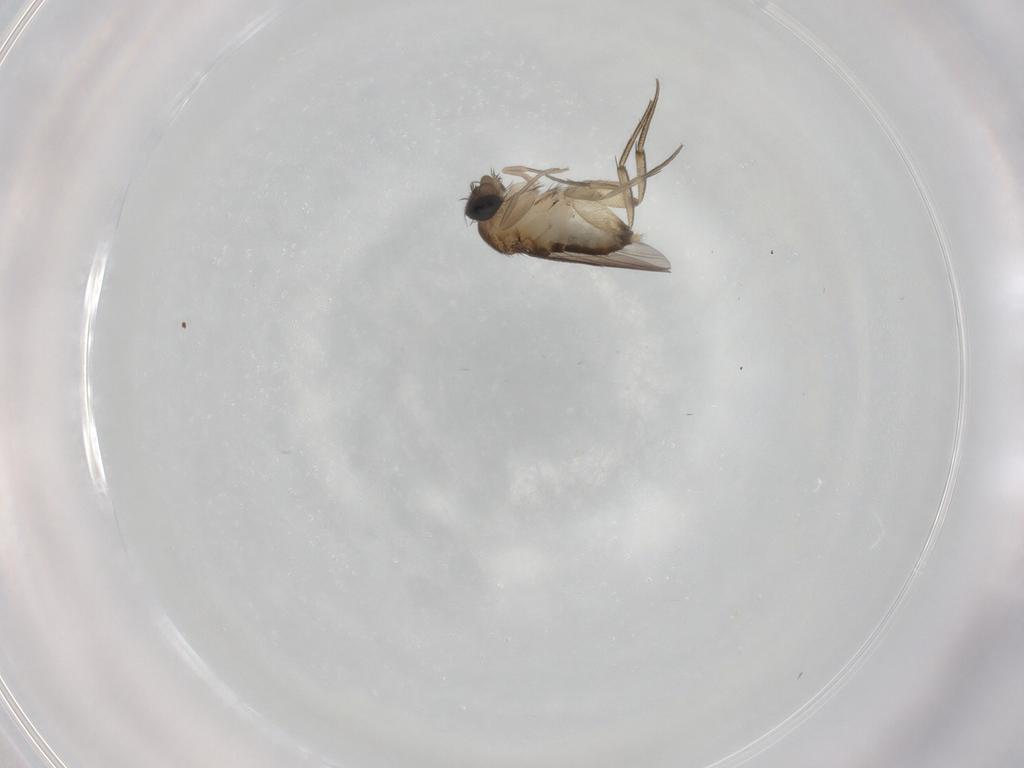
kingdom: Animalia
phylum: Arthropoda
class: Insecta
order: Diptera
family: Phoridae
